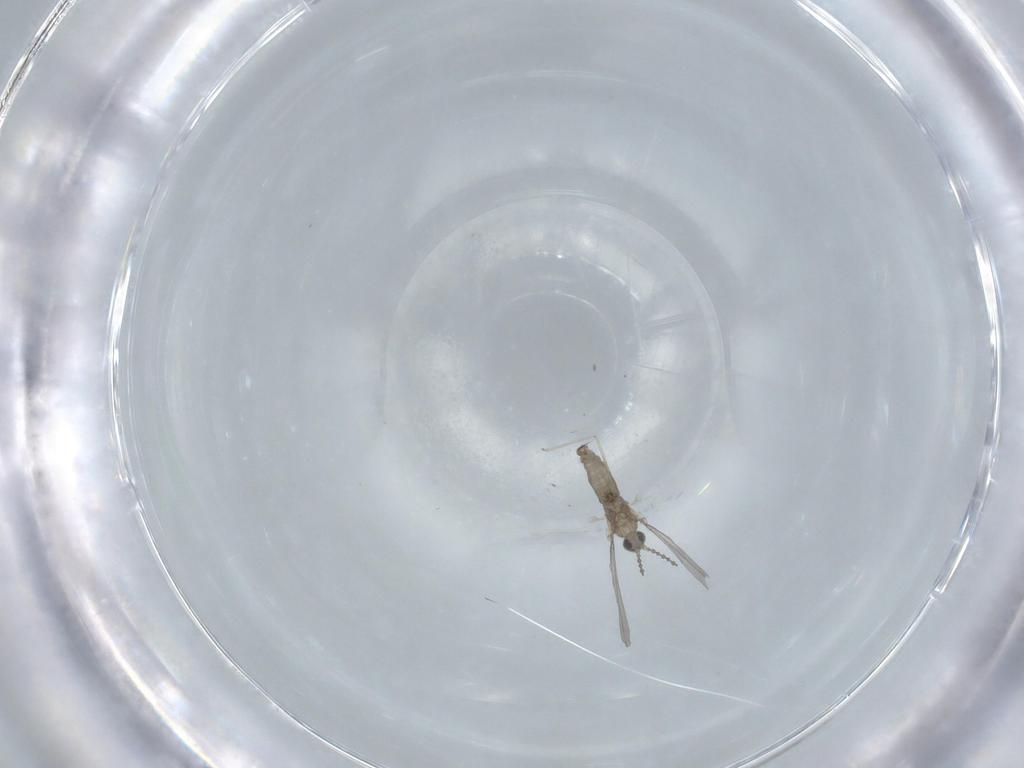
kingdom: Animalia
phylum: Arthropoda
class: Insecta
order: Diptera
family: Cecidomyiidae
